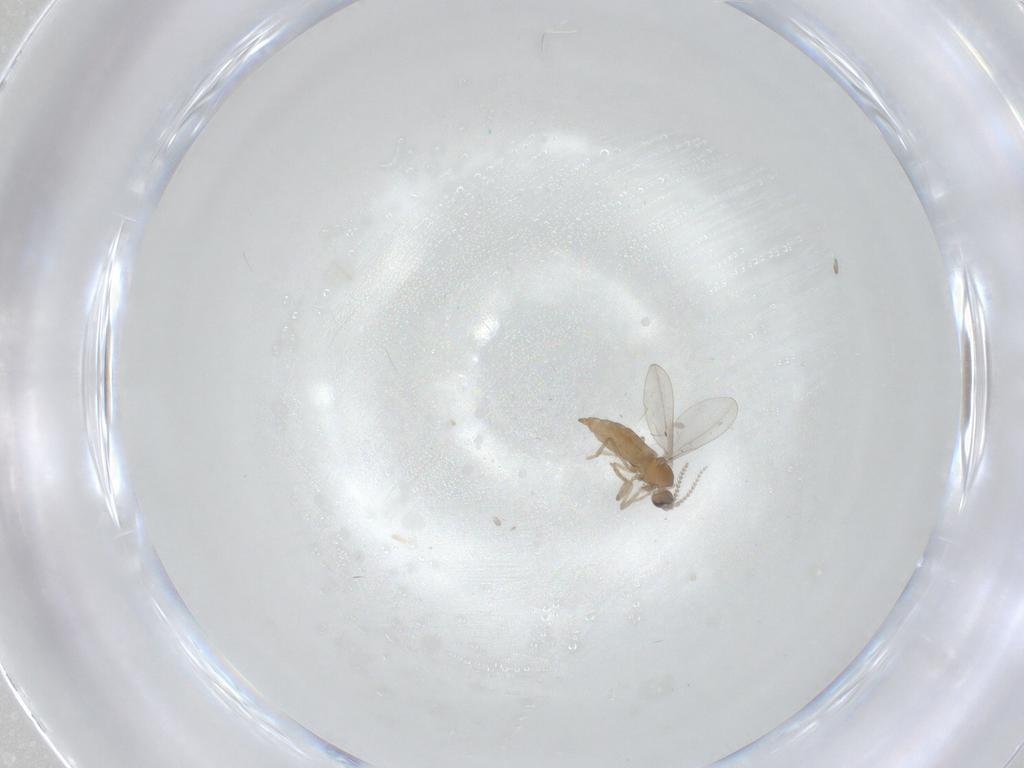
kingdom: Animalia
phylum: Arthropoda
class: Insecta
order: Diptera
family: Cecidomyiidae
